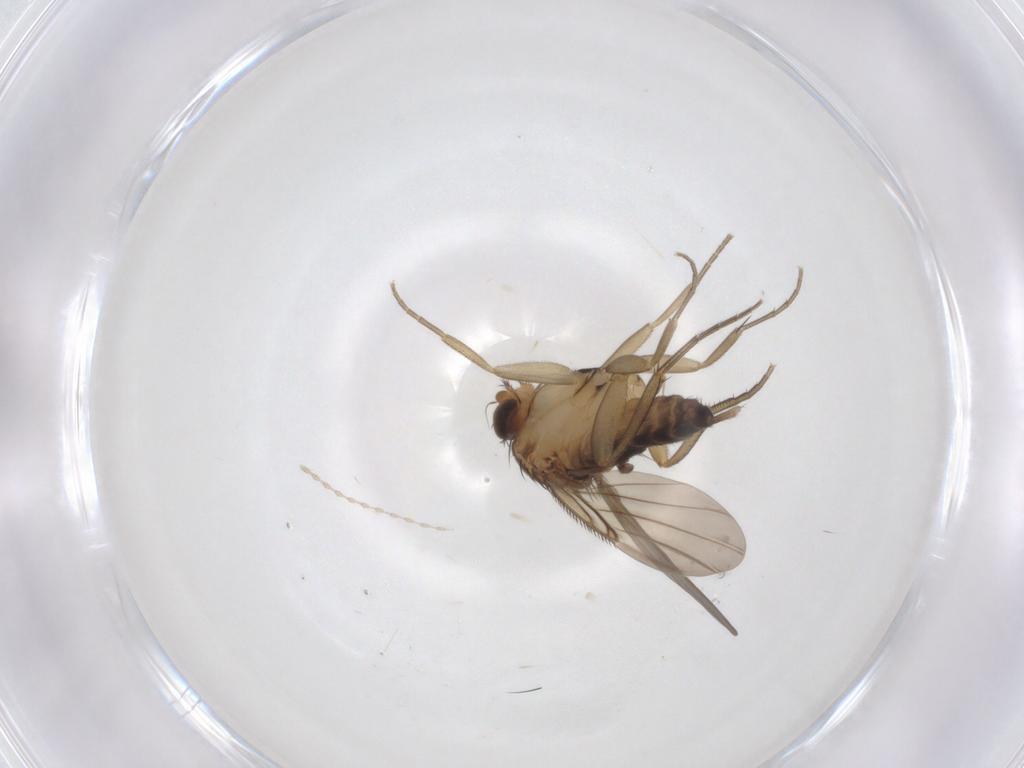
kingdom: Animalia
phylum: Arthropoda
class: Insecta
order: Diptera
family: Cecidomyiidae
